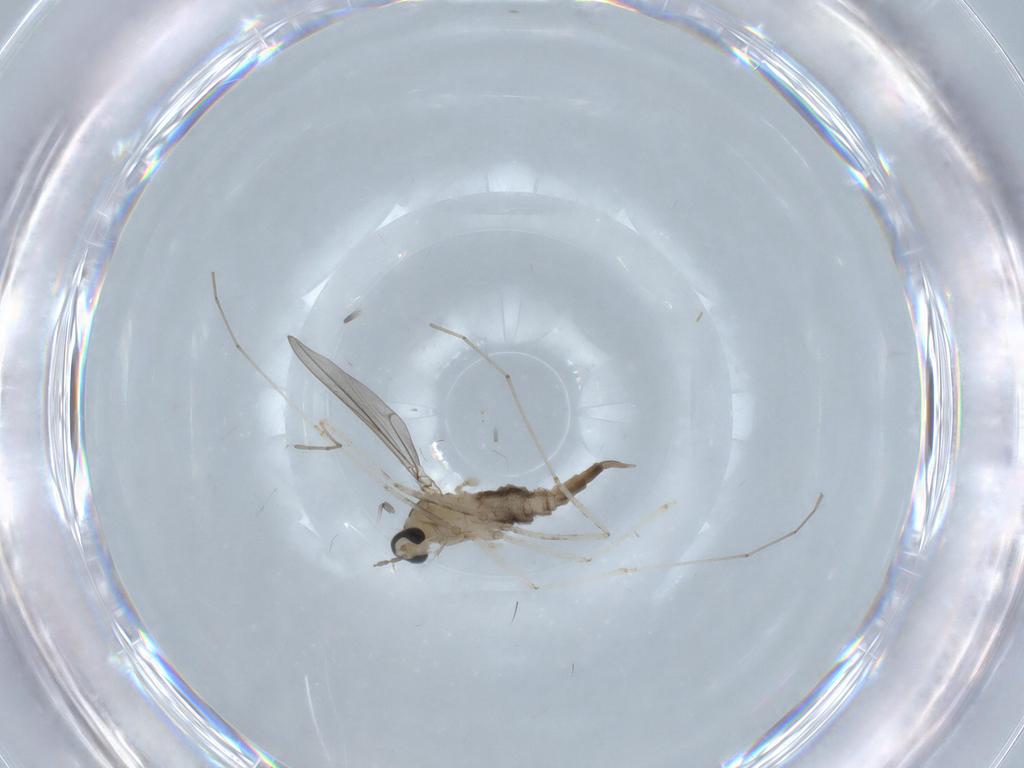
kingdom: Animalia
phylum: Arthropoda
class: Insecta
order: Diptera
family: Cecidomyiidae
